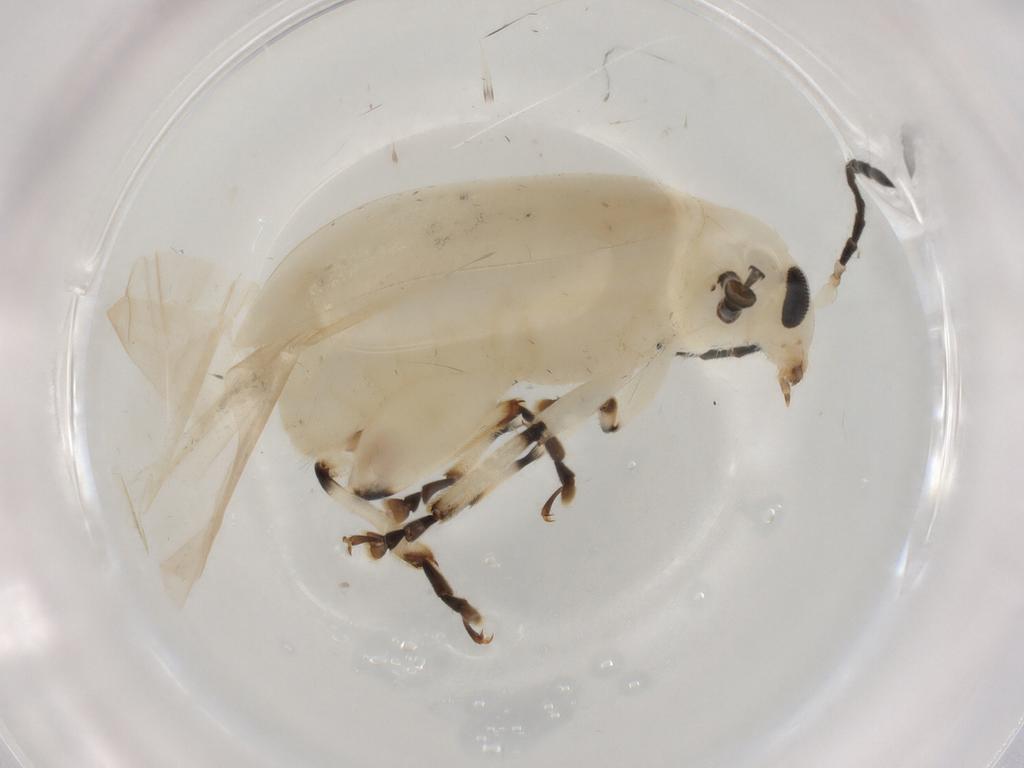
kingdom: Animalia
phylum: Arthropoda
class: Insecta
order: Coleoptera
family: Chrysomelidae
